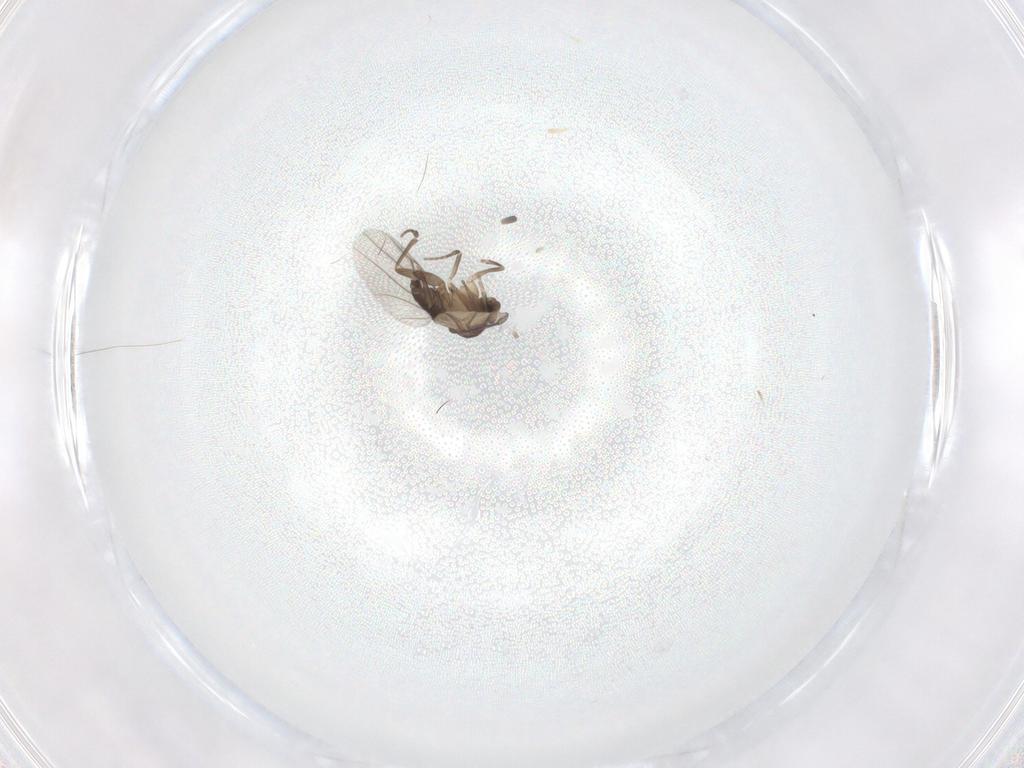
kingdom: Animalia
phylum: Arthropoda
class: Insecta
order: Diptera
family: Phoridae
